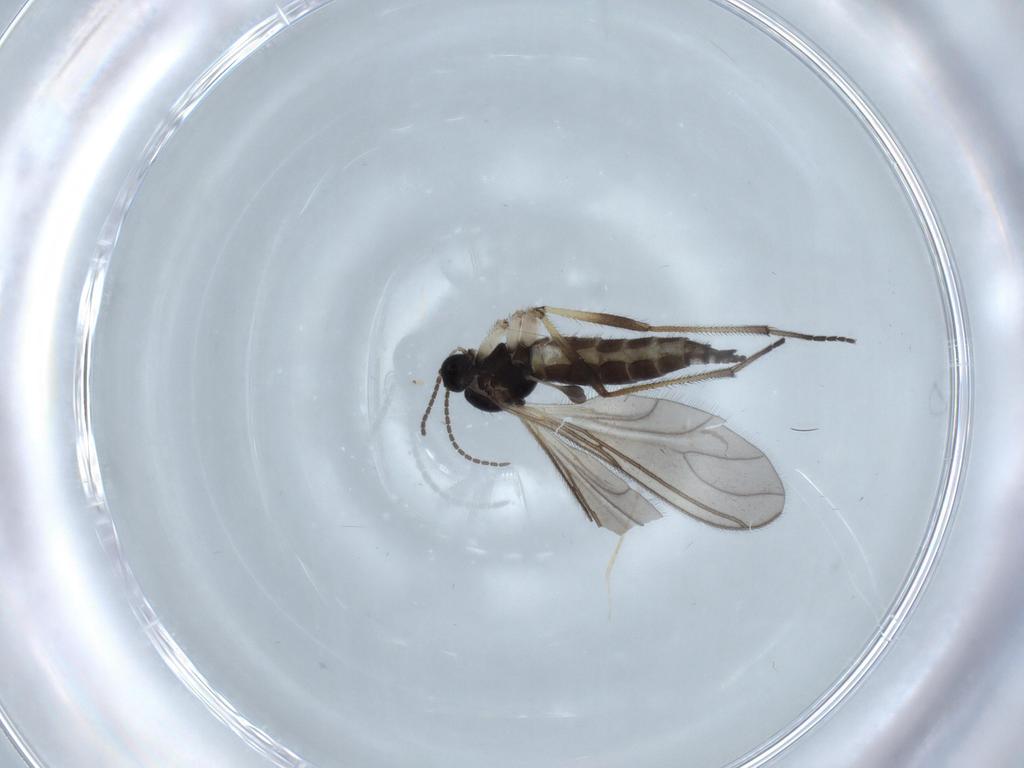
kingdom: Animalia
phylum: Arthropoda
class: Insecta
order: Diptera
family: Sciaridae
